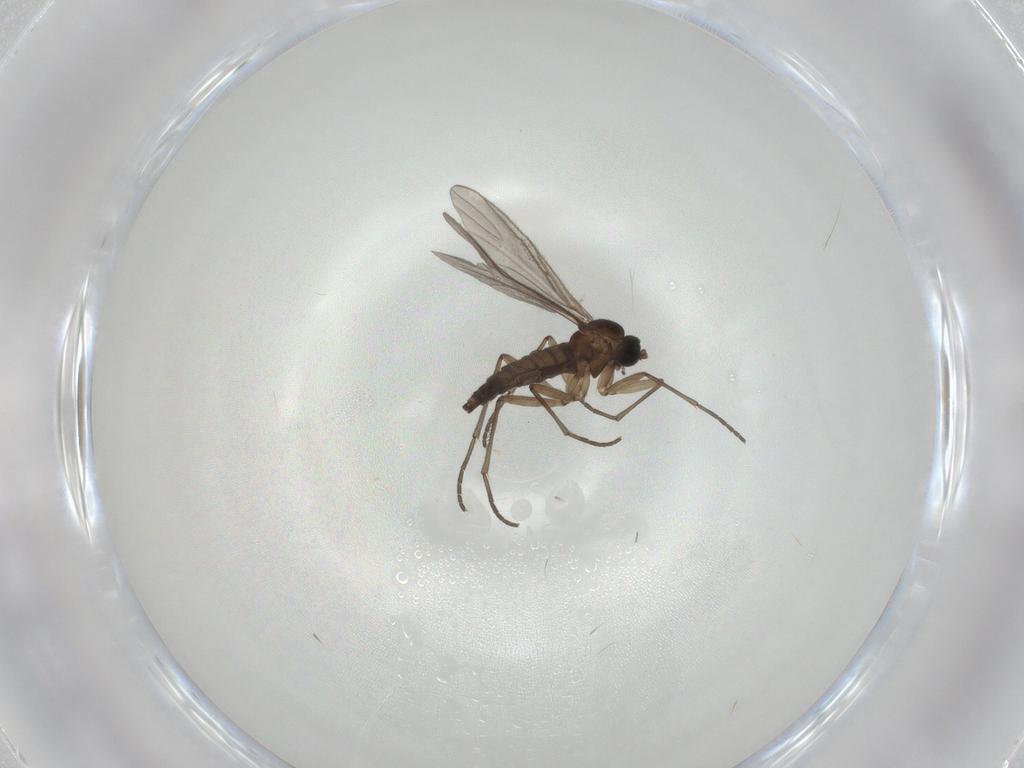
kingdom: Animalia
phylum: Arthropoda
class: Insecta
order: Diptera
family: Sciaridae
